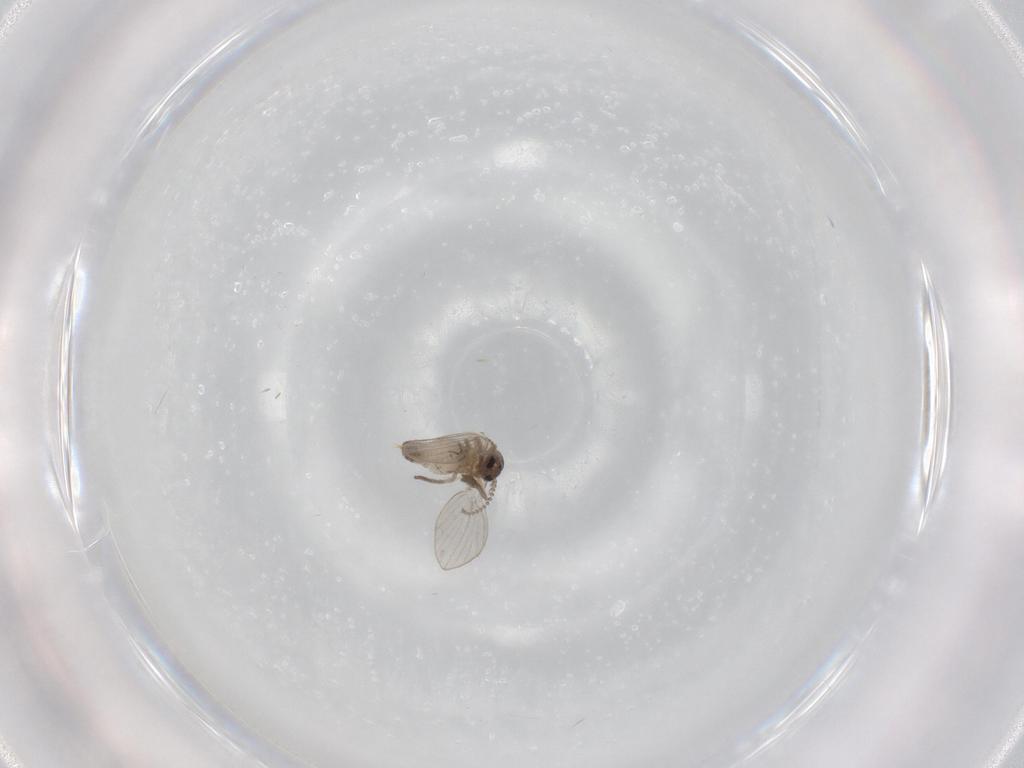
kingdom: Animalia
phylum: Arthropoda
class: Insecta
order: Diptera
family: Psychodidae
